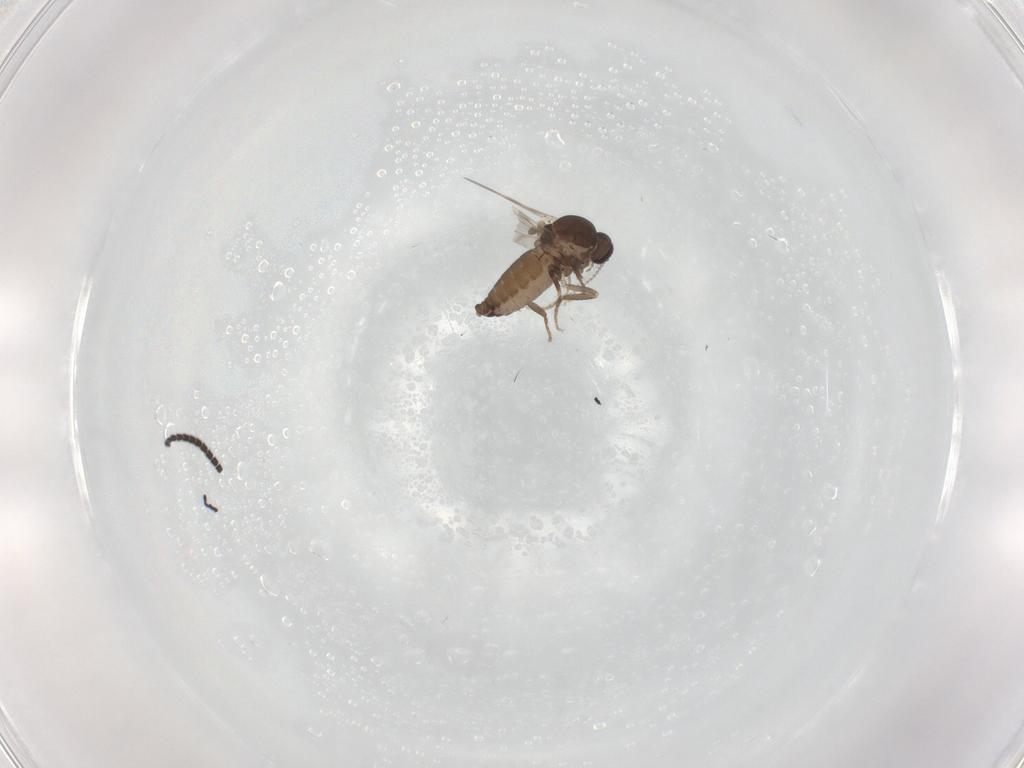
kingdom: Animalia
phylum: Arthropoda
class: Insecta
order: Diptera
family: Ceratopogonidae
